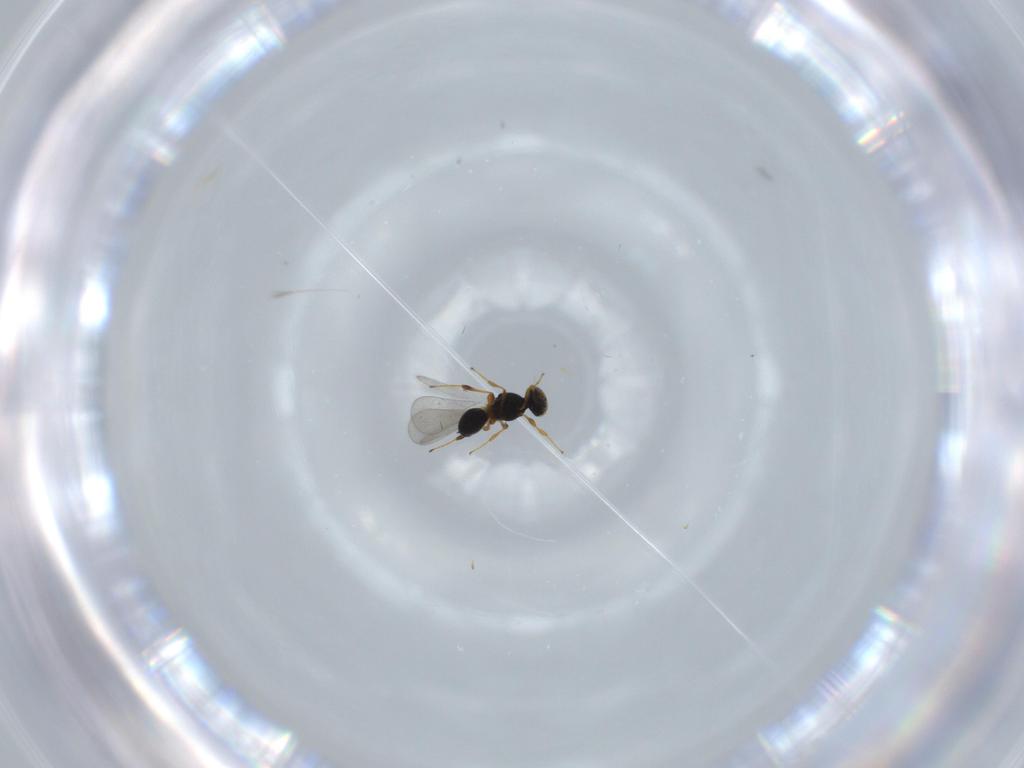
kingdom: Animalia
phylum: Arthropoda
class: Insecta
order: Hymenoptera
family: Platygastridae
